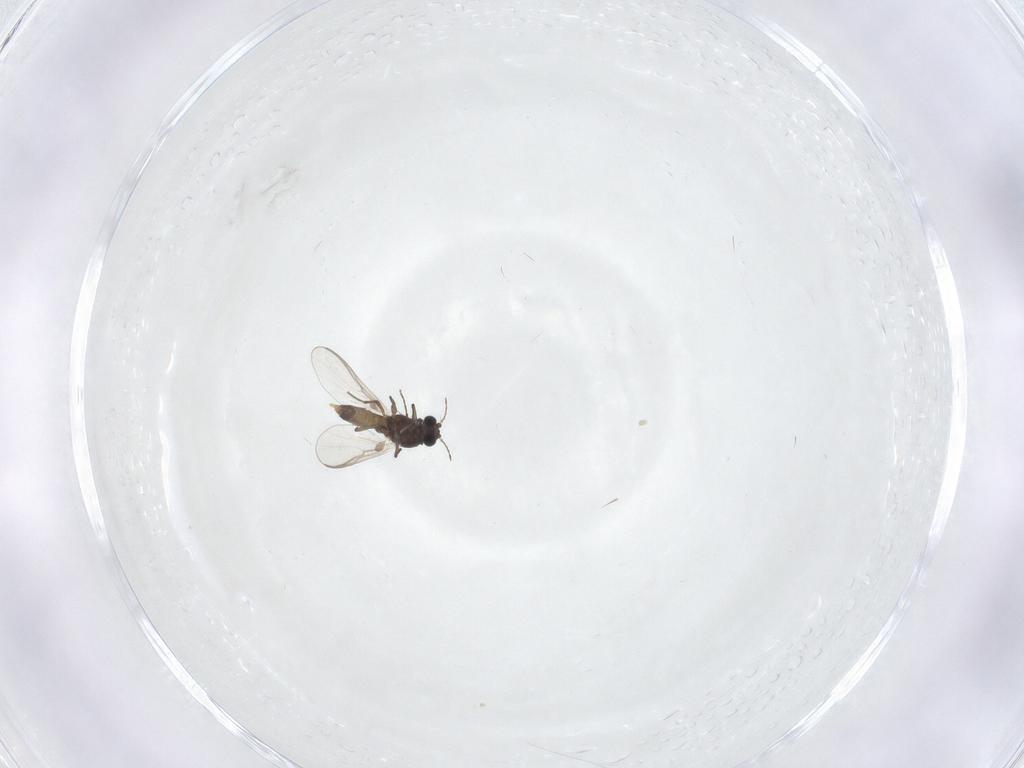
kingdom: Animalia
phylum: Arthropoda
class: Insecta
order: Diptera
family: Chironomidae
